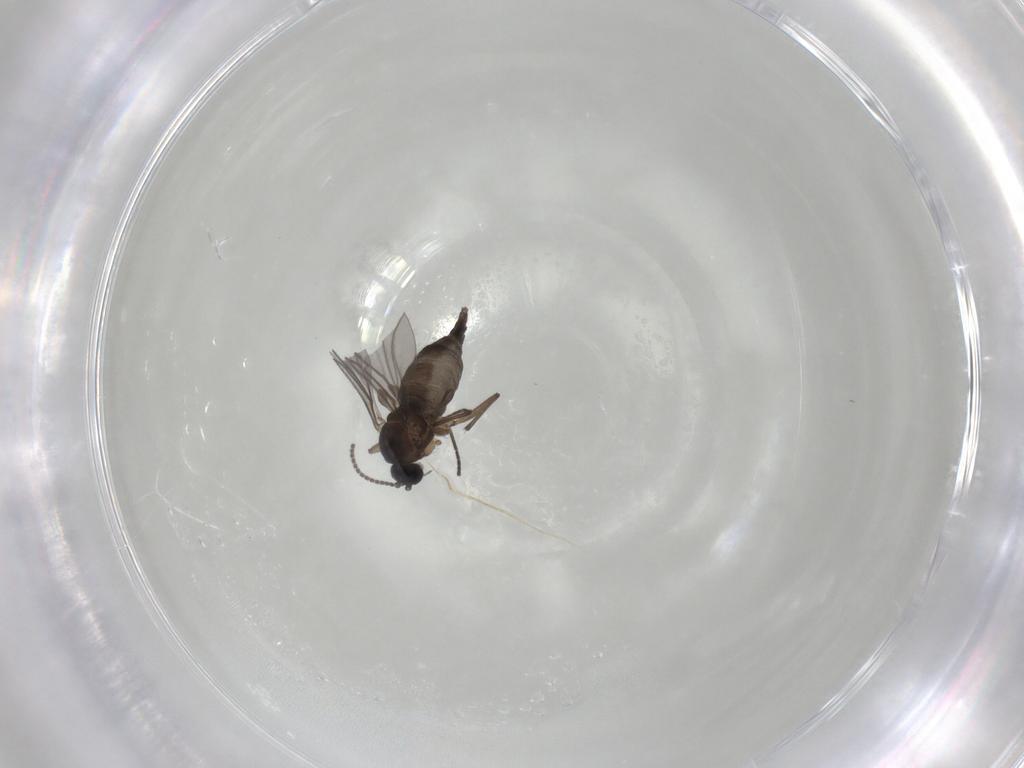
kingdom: Animalia
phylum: Arthropoda
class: Insecta
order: Diptera
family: Sciaridae
